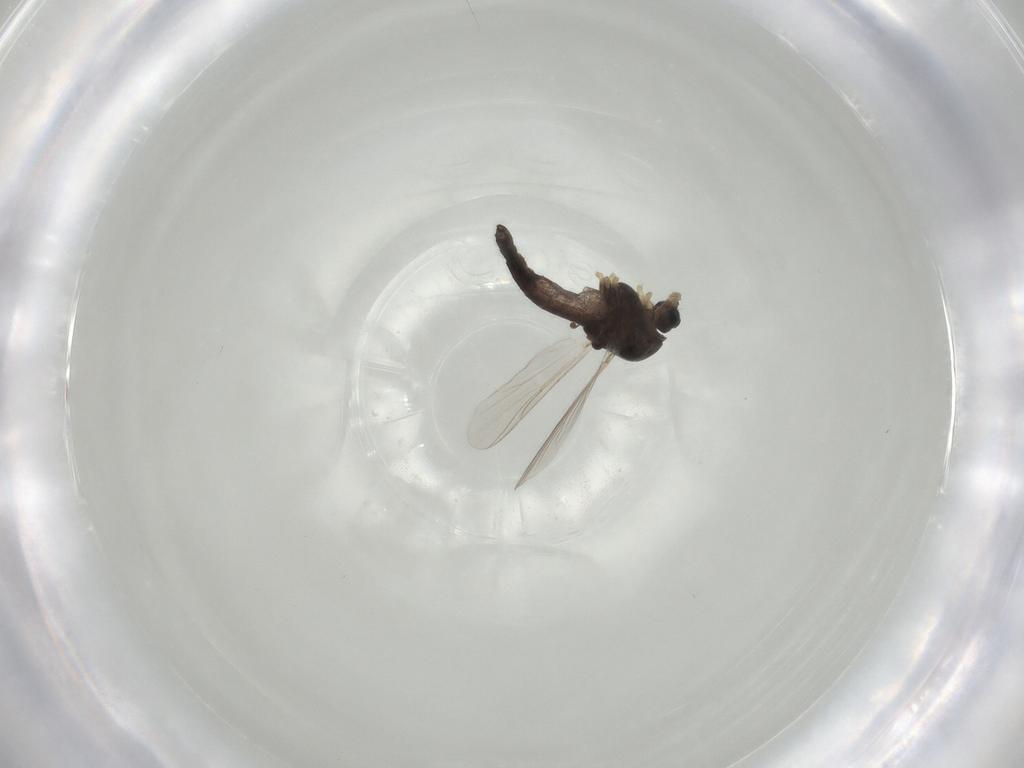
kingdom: Animalia
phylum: Arthropoda
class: Insecta
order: Diptera
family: Chironomidae
